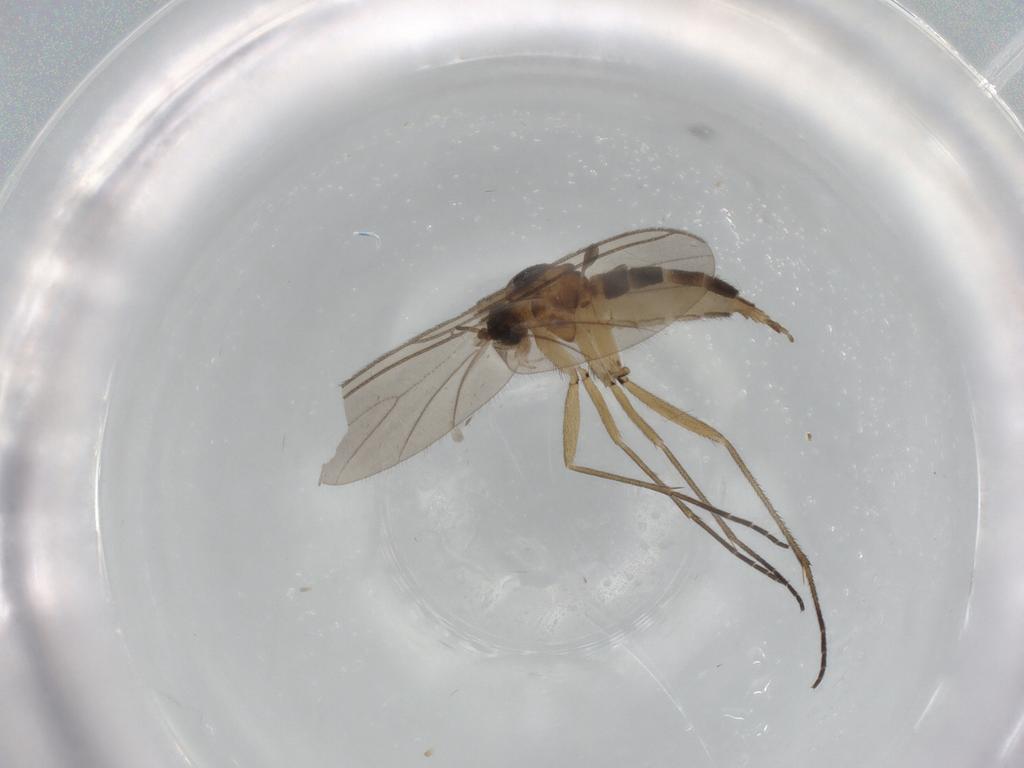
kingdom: Animalia
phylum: Arthropoda
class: Insecta
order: Diptera
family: Sciaridae
